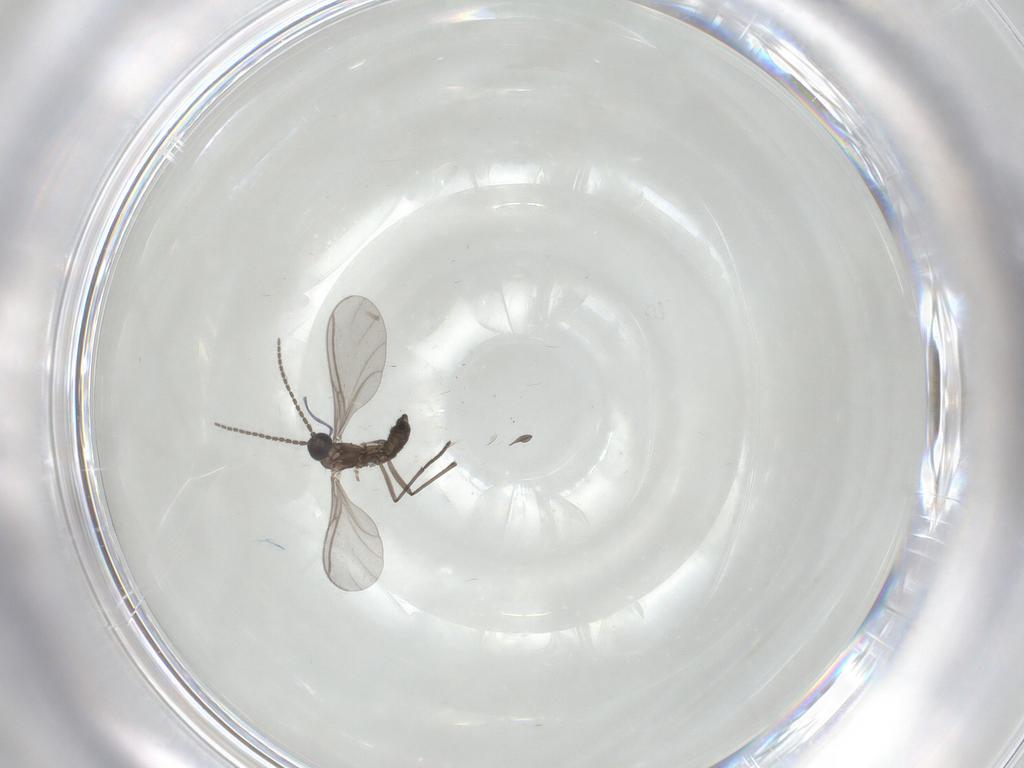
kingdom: Animalia
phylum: Arthropoda
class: Insecta
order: Diptera
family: Sciaridae
